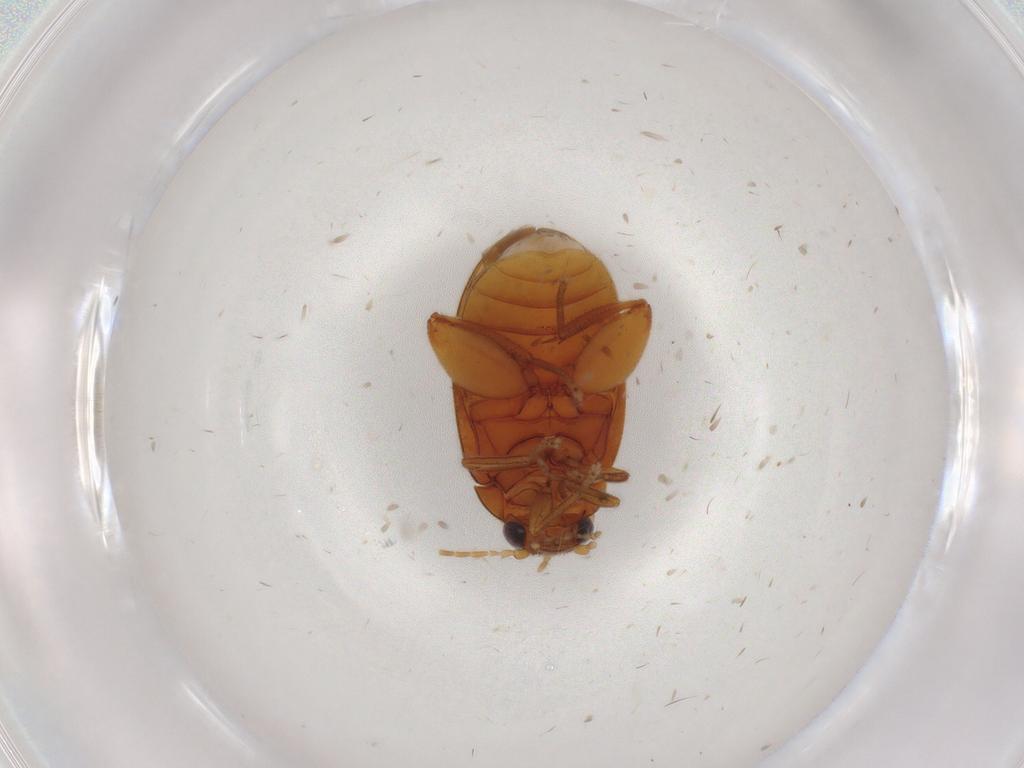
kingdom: Animalia
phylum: Arthropoda
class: Insecta
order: Coleoptera
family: Scirtidae
